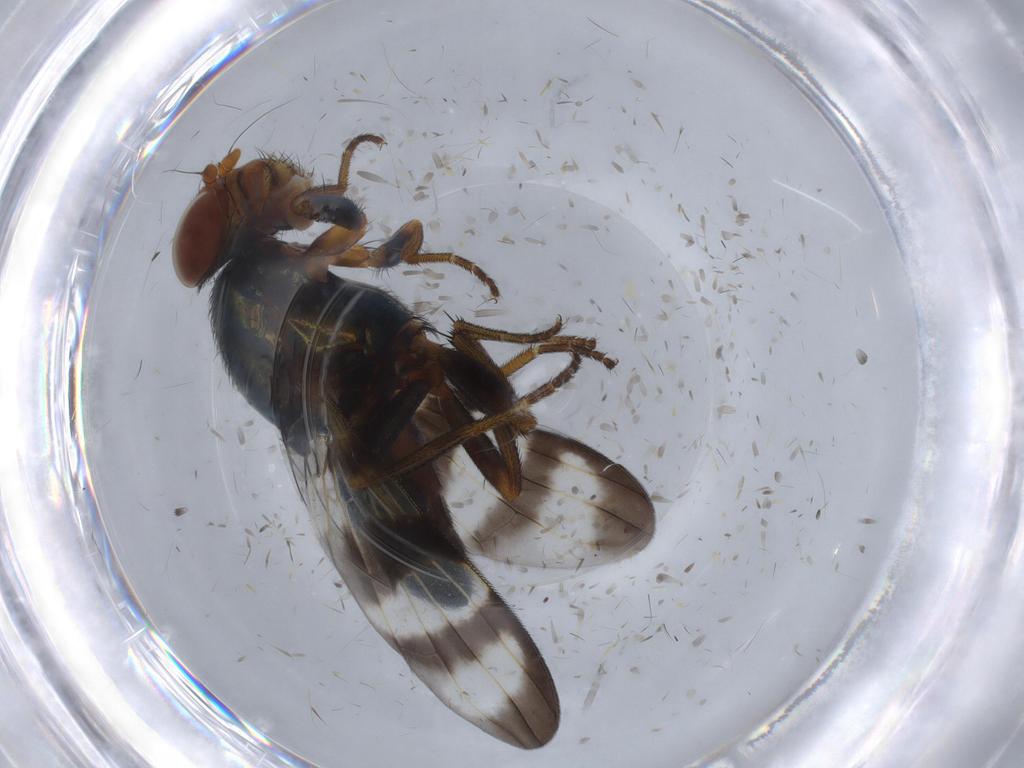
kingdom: Animalia
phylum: Arthropoda
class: Insecta
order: Diptera
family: Ulidiidae
